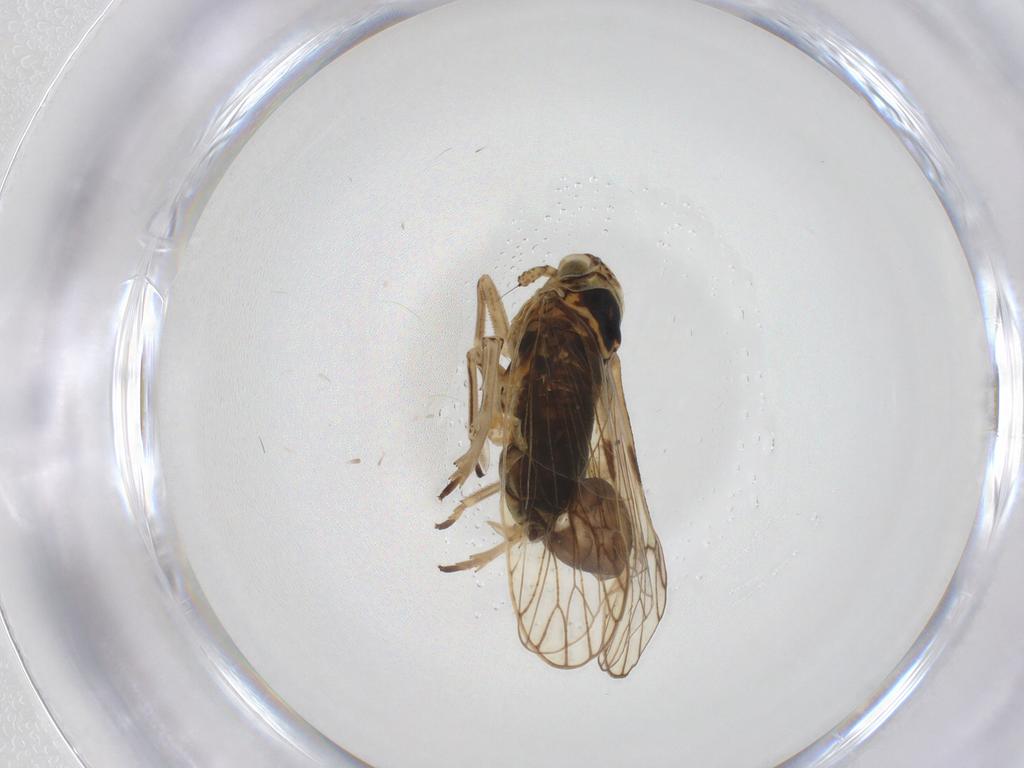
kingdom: Animalia
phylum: Arthropoda
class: Insecta
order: Hemiptera
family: Delphacidae
